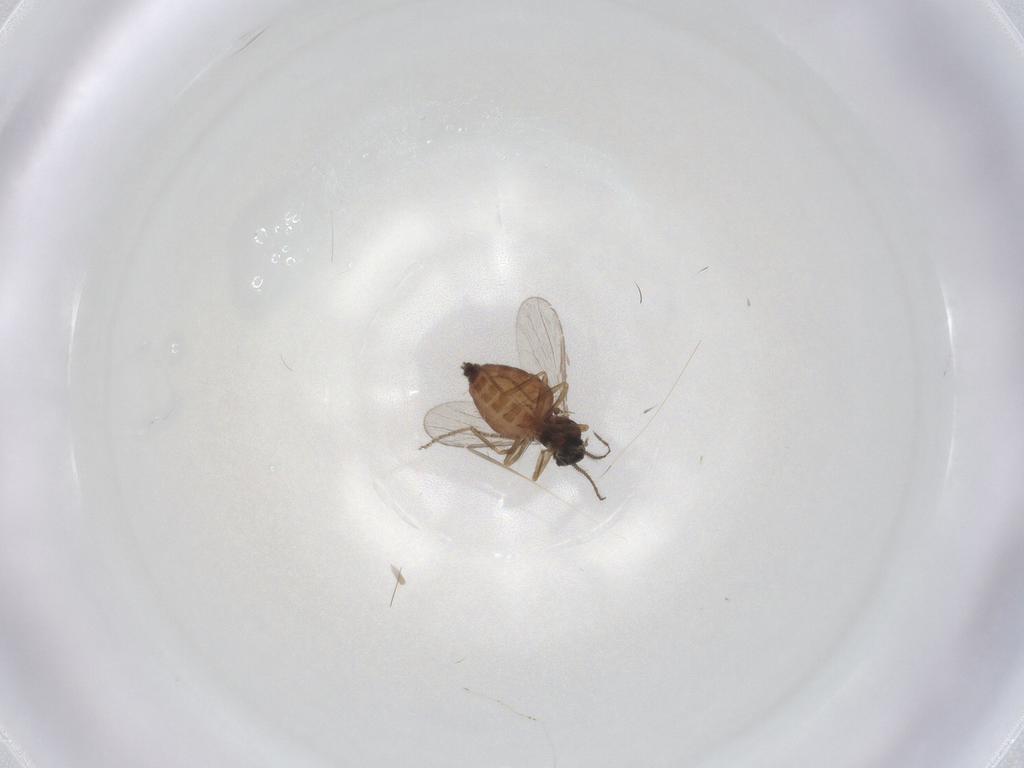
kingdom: Animalia
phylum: Arthropoda
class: Insecta
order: Diptera
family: Ceratopogonidae
